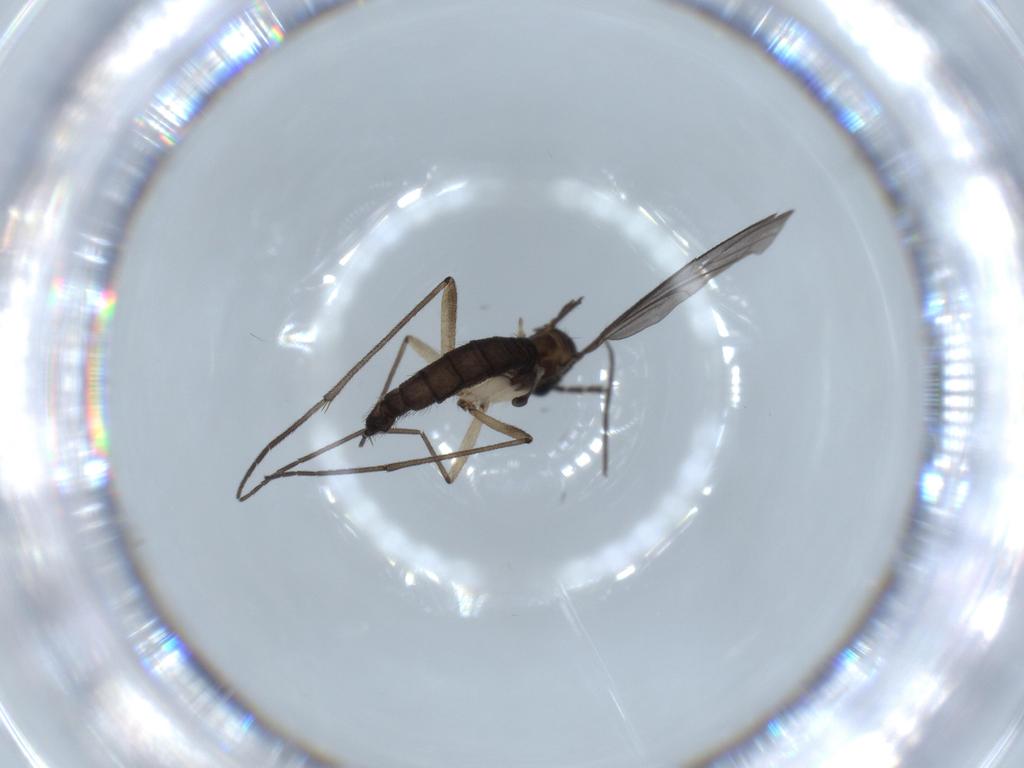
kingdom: Animalia
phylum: Arthropoda
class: Insecta
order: Diptera
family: Sciaridae
